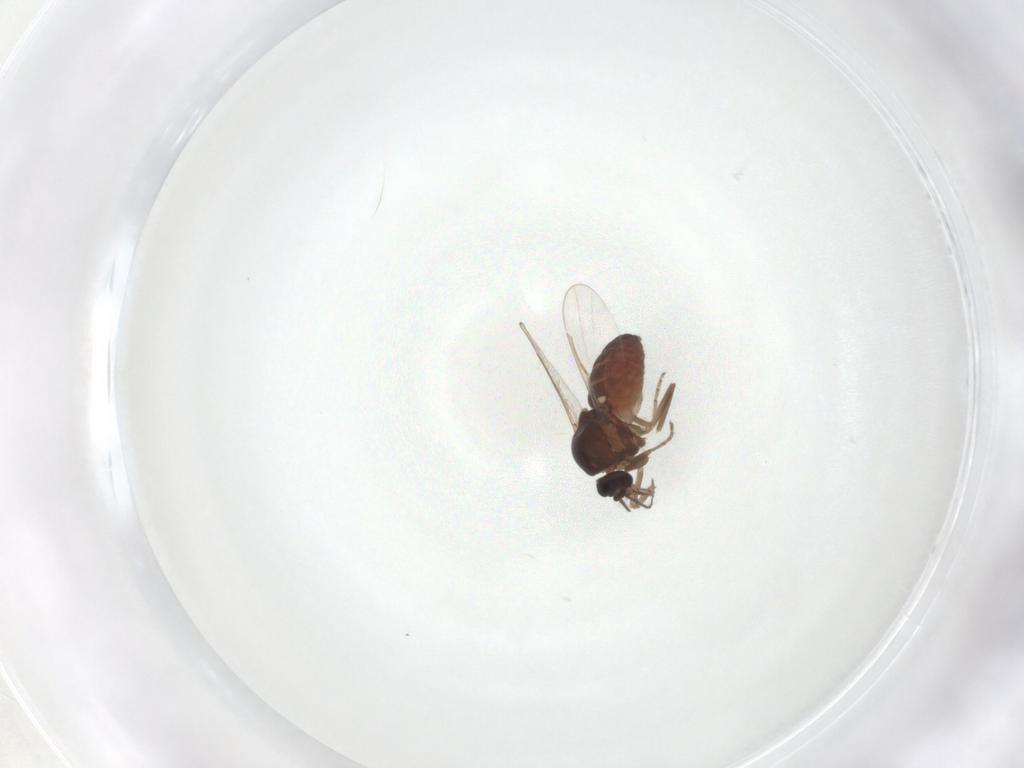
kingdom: Animalia
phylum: Arthropoda
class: Insecta
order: Diptera
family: Ceratopogonidae
